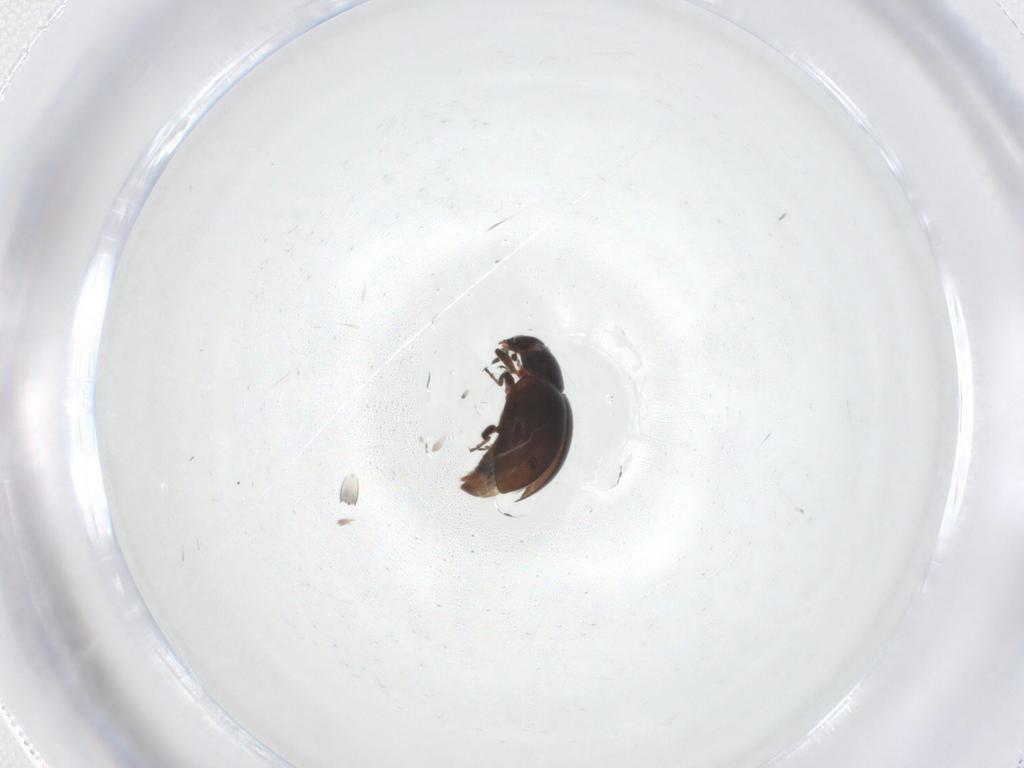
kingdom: Animalia
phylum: Arthropoda
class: Insecta
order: Coleoptera
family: Coccinellidae
